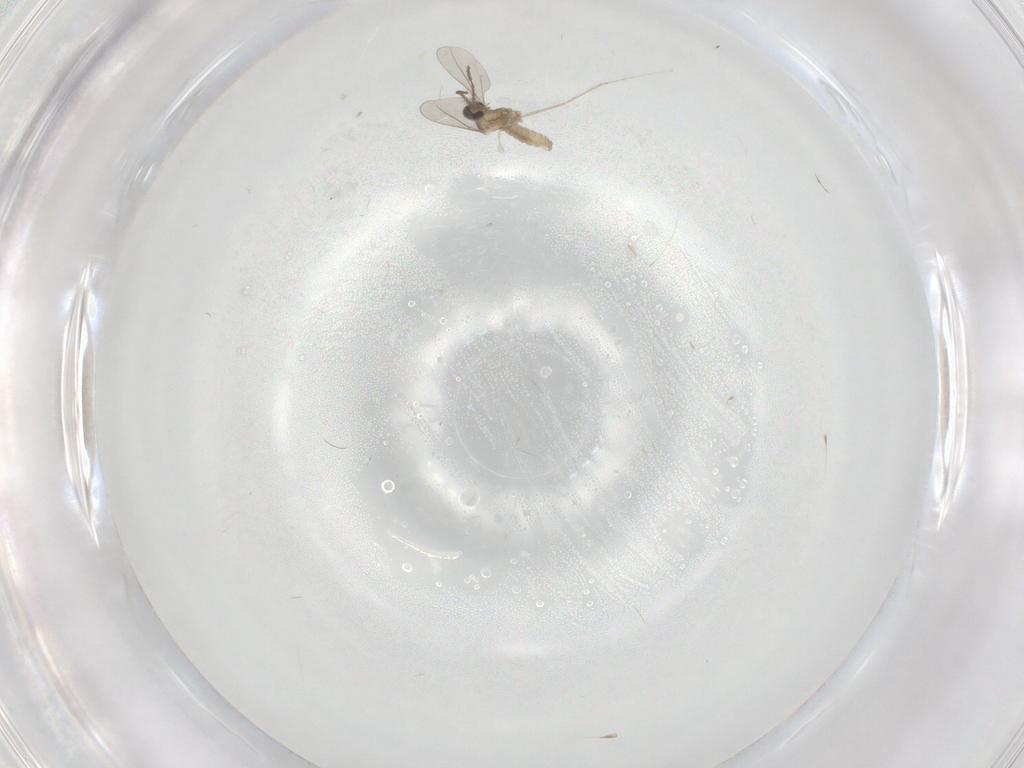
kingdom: Animalia
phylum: Arthropoda
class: Insecta
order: Diptera
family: Cecidomyiidae
